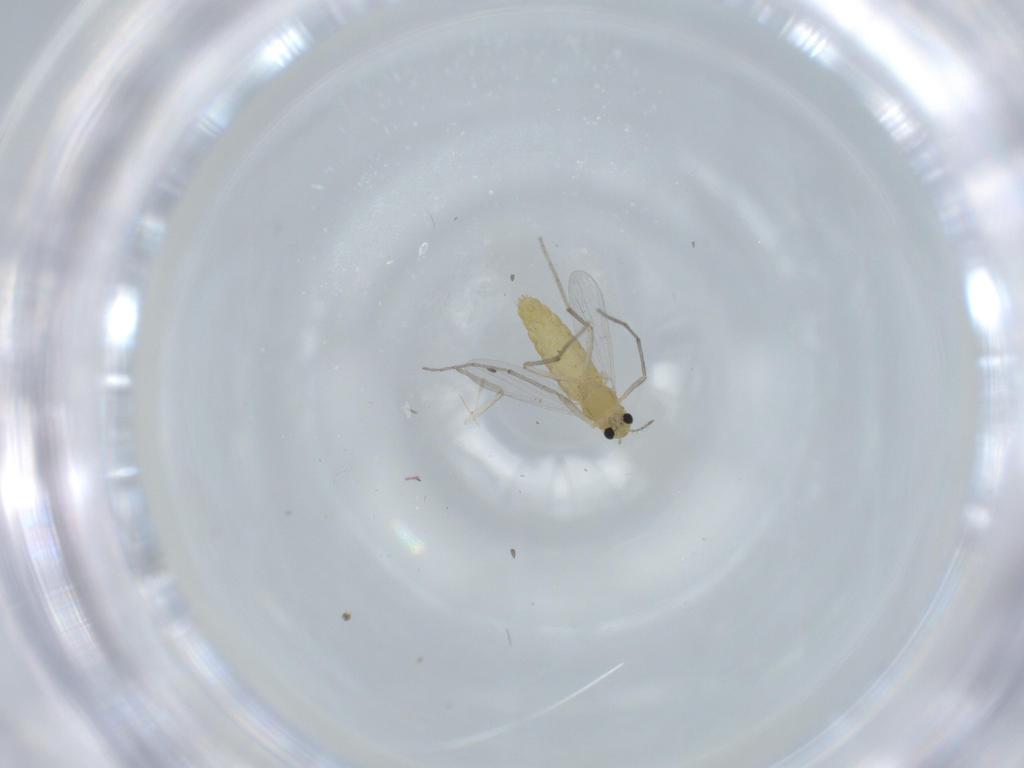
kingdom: Animalia
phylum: Arthropoda
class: Insecta
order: Diptera
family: Chironomidae
